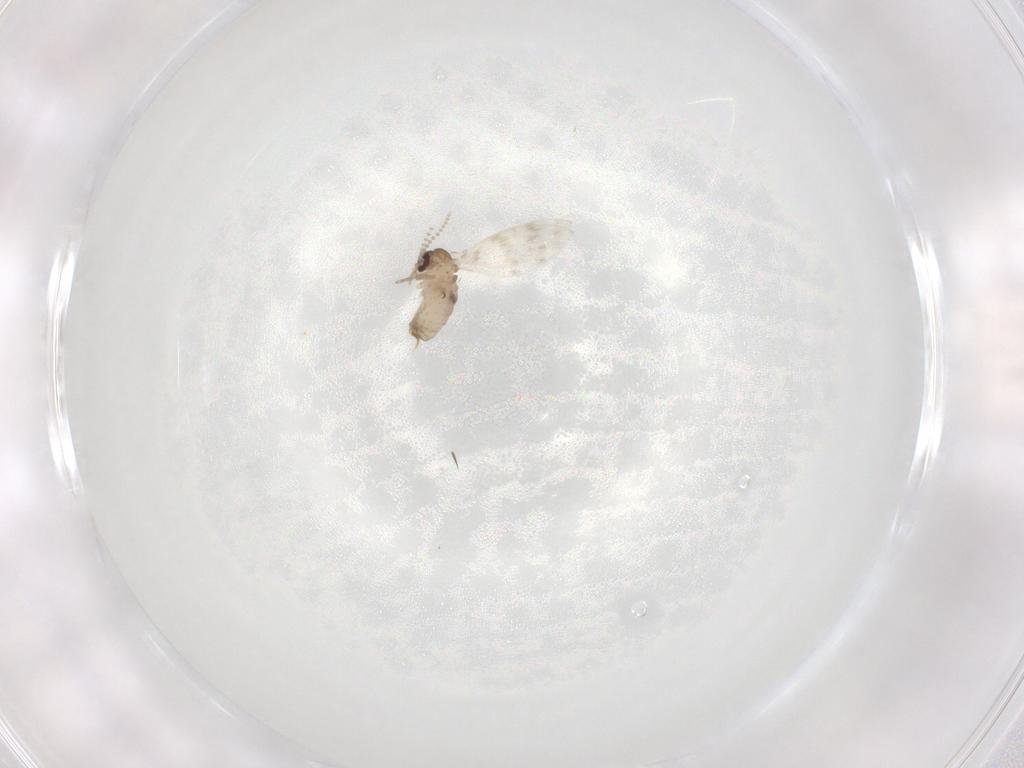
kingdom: Animalia
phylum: Arthropoda
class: Insecta
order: Diptera
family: Psychodidae
